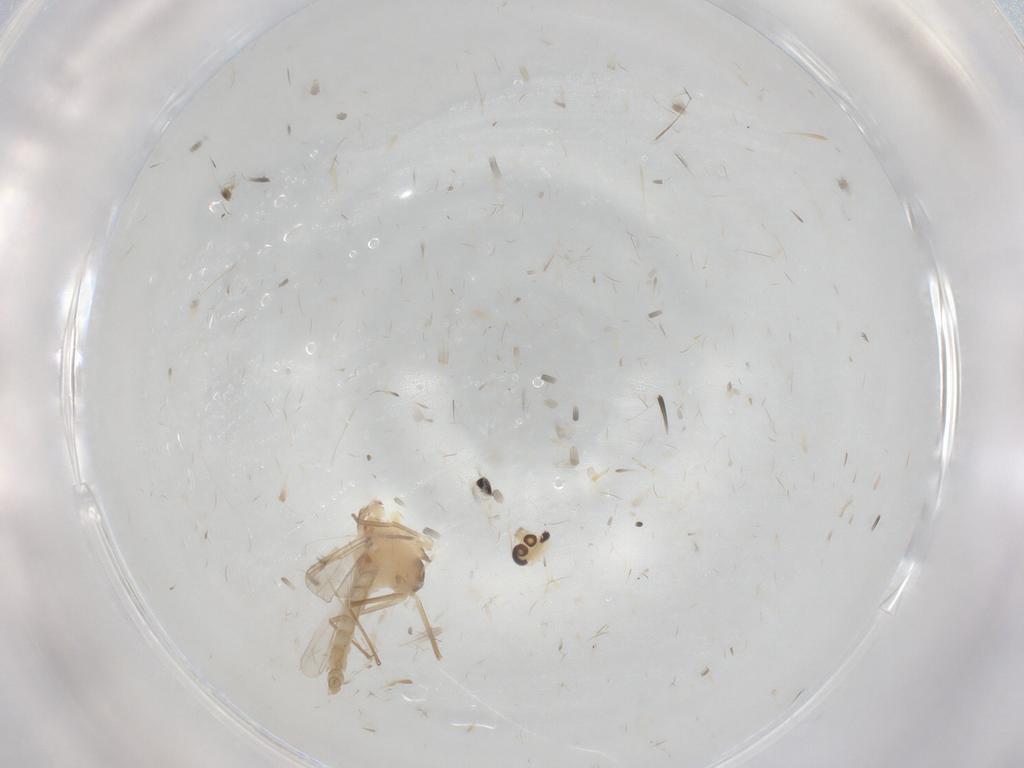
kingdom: Animalia
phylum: Arthropoda
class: Insecta
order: Diptera
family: Chironomidae
